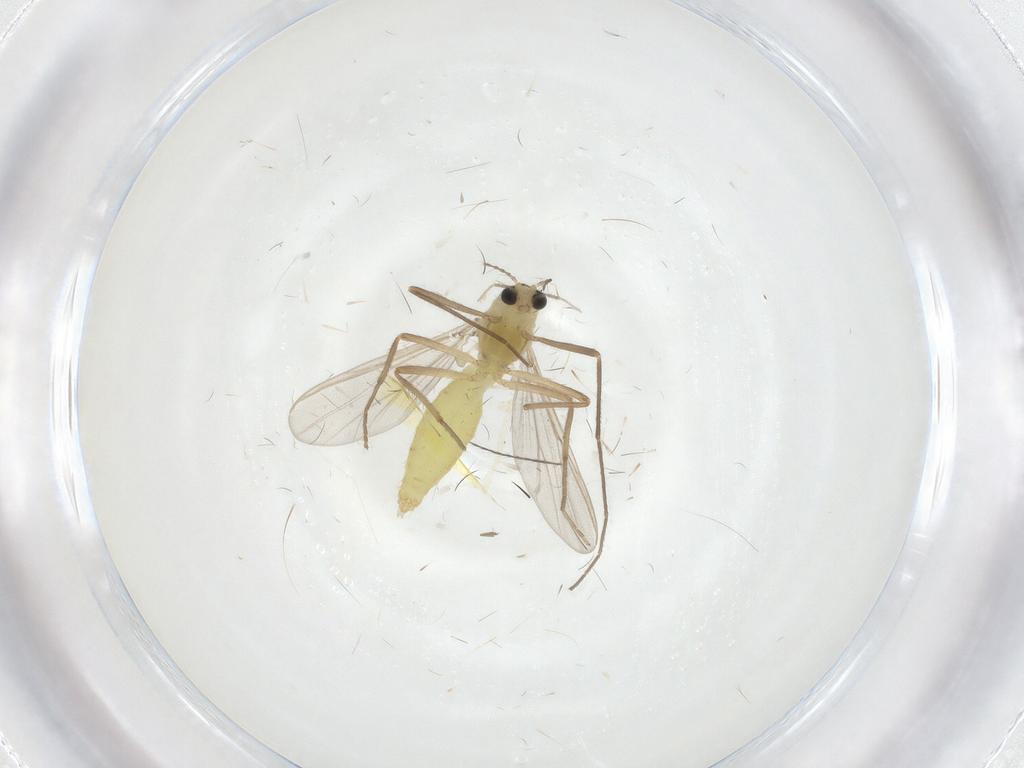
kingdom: Animalia
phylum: Arthropoda
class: Insecta
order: Diptera
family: Chironomidae
